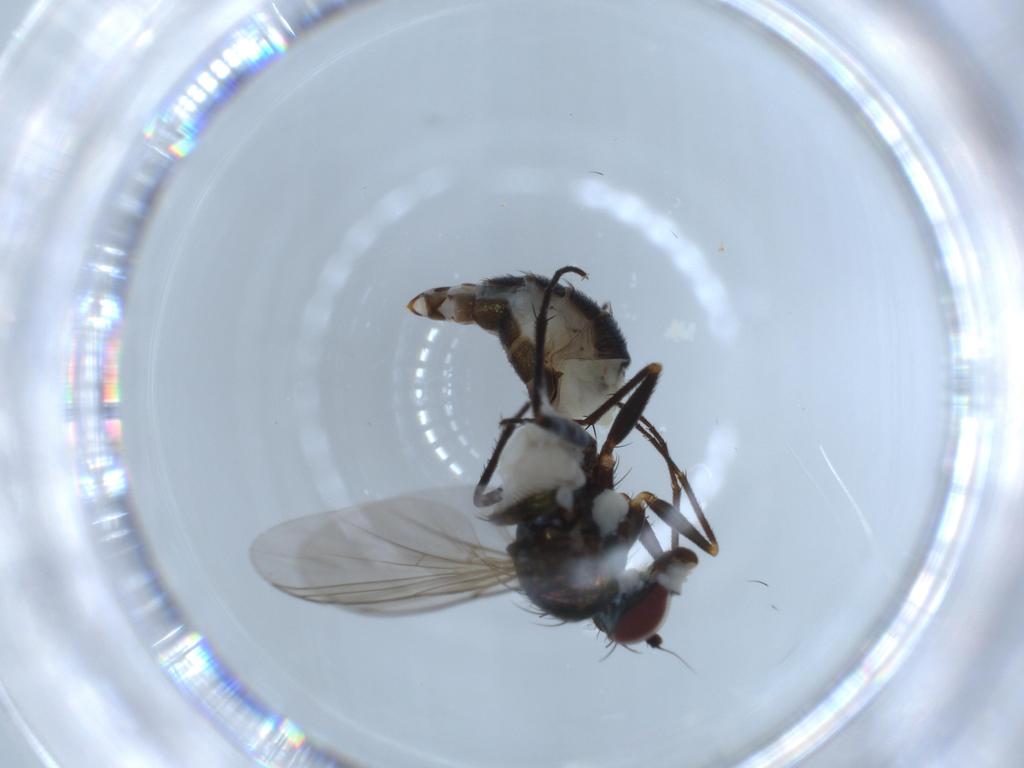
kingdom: Animalia
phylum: Arthropoda
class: Insecta
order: Diptera
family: Dolichopodidae
